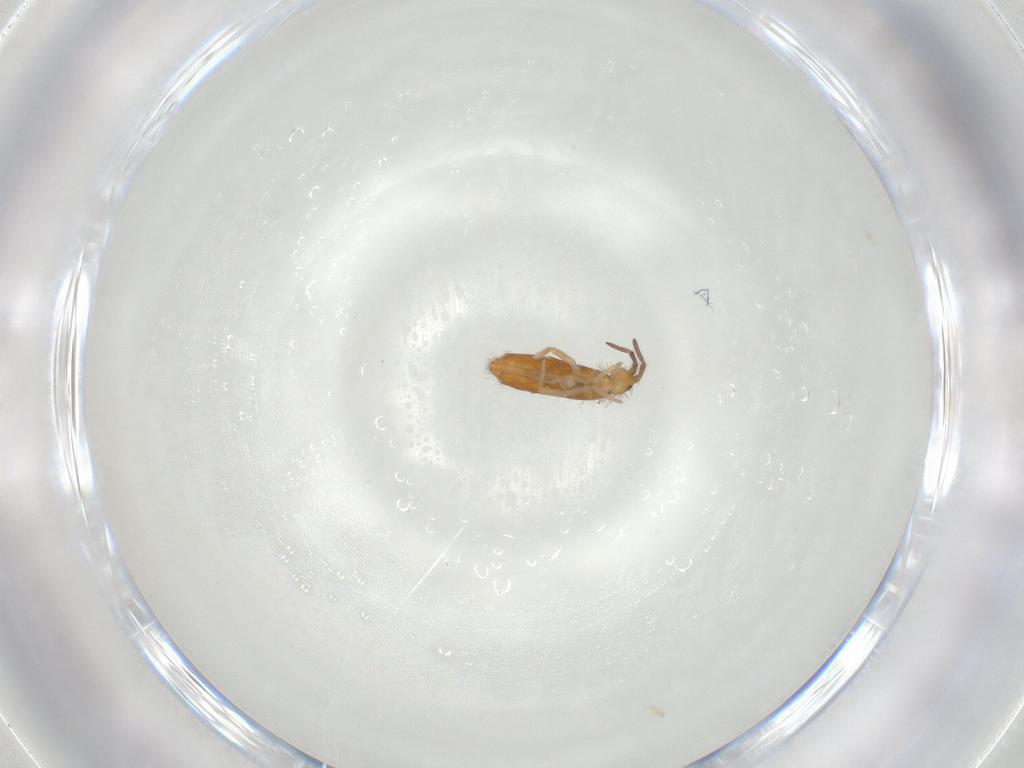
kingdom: Animalia
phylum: Arthropoda
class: Collembola
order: Entomobryomorpha
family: Entomobryidae
